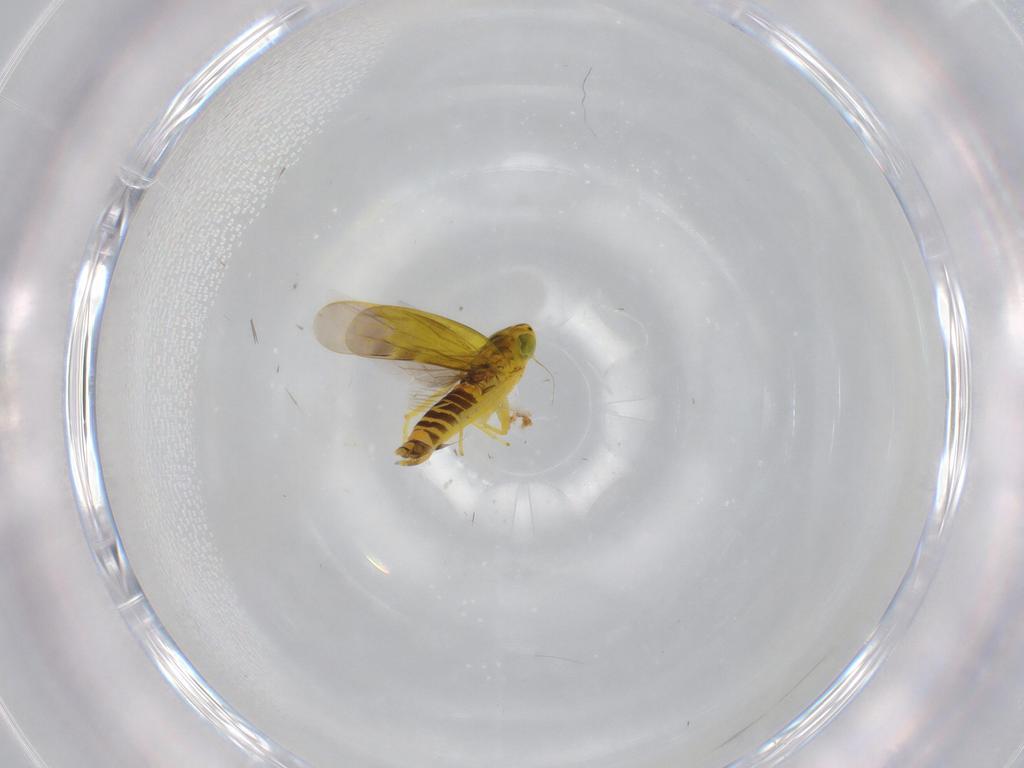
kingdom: Animalia
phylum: Arthropoda
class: Insecta
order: Hemiptera
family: Cicadellidae
